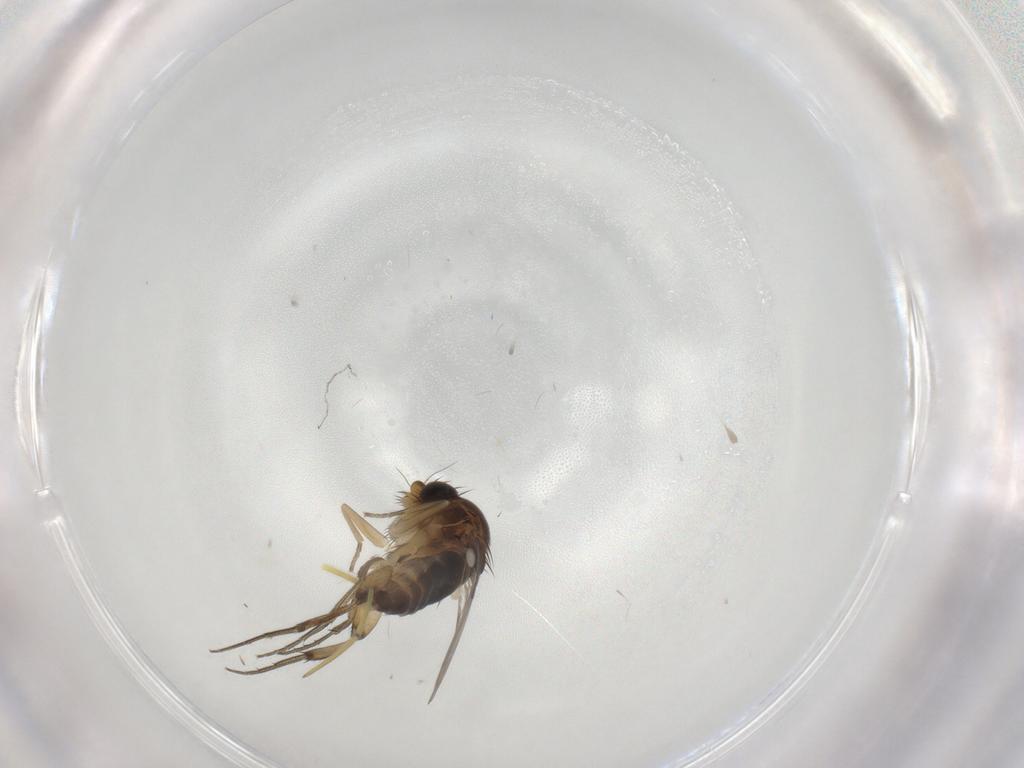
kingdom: Animalia
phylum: Arthropoda
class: Insecta
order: Diptera
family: Phoridae
